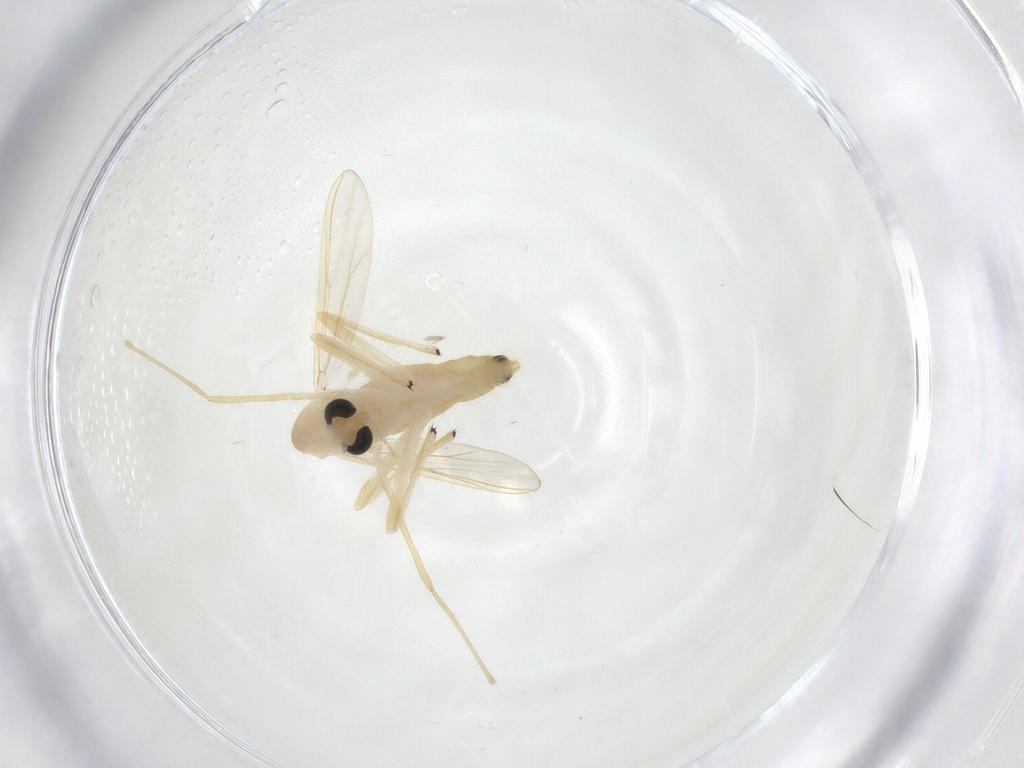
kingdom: Animalia
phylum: Arthropoda
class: Insecta
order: Diptera
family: Chironomidae
